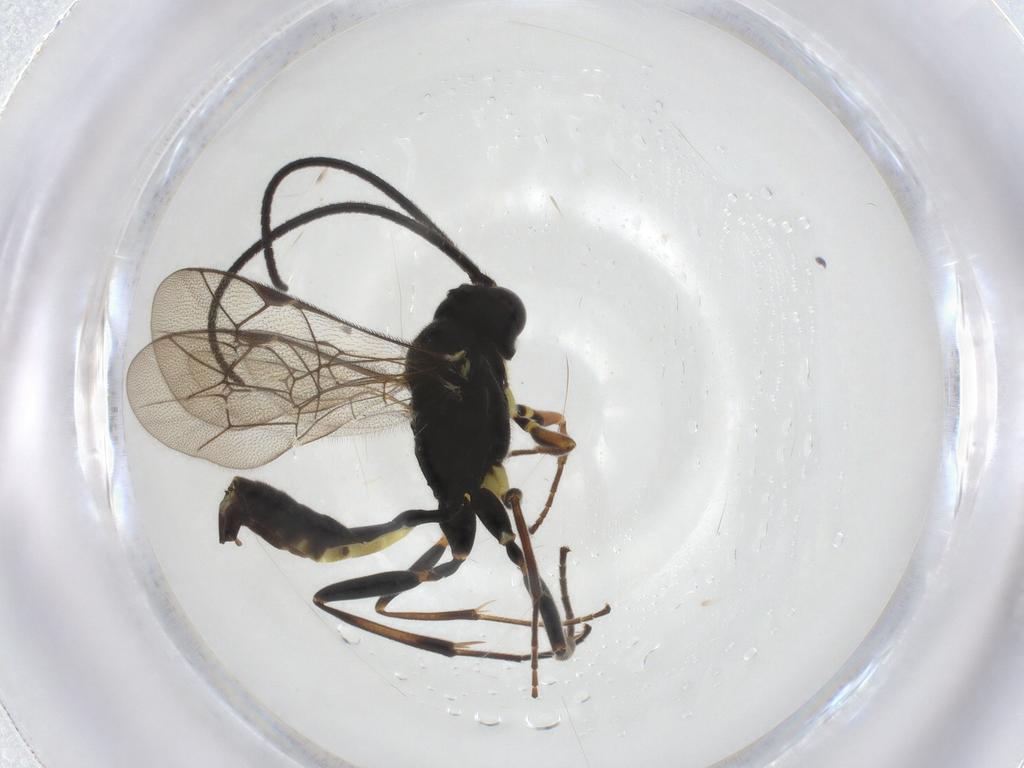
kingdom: Animalia
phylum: Arthropoda
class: Insecta
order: Hymenoptera
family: Ichneumonidae
